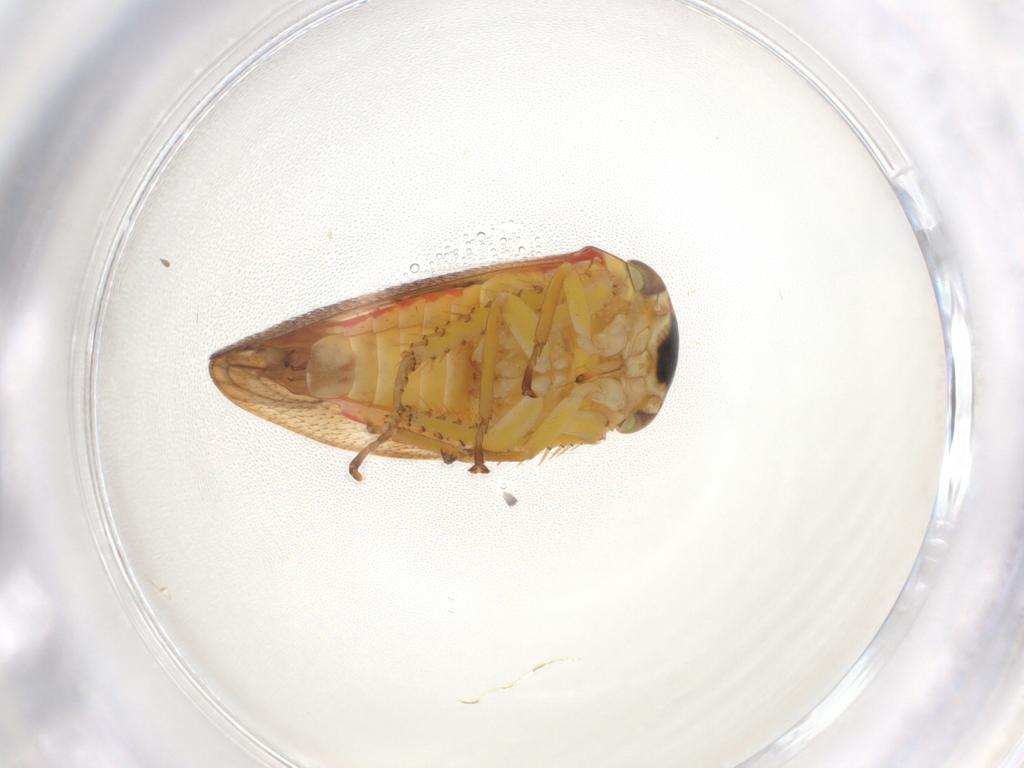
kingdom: Animalia
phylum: Arthropoda
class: Insecta
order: Hemiptera
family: Cicadellidae
